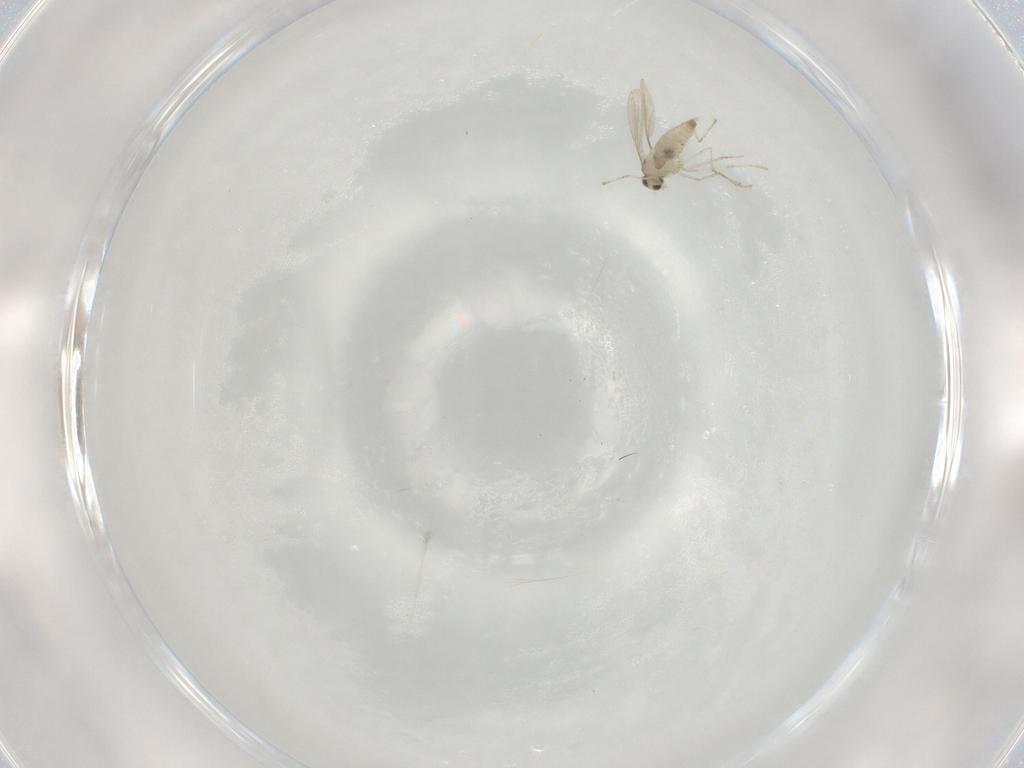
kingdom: Animalia
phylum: Arthropoda
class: Insecta
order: Diptera
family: Cecidomyiidae
